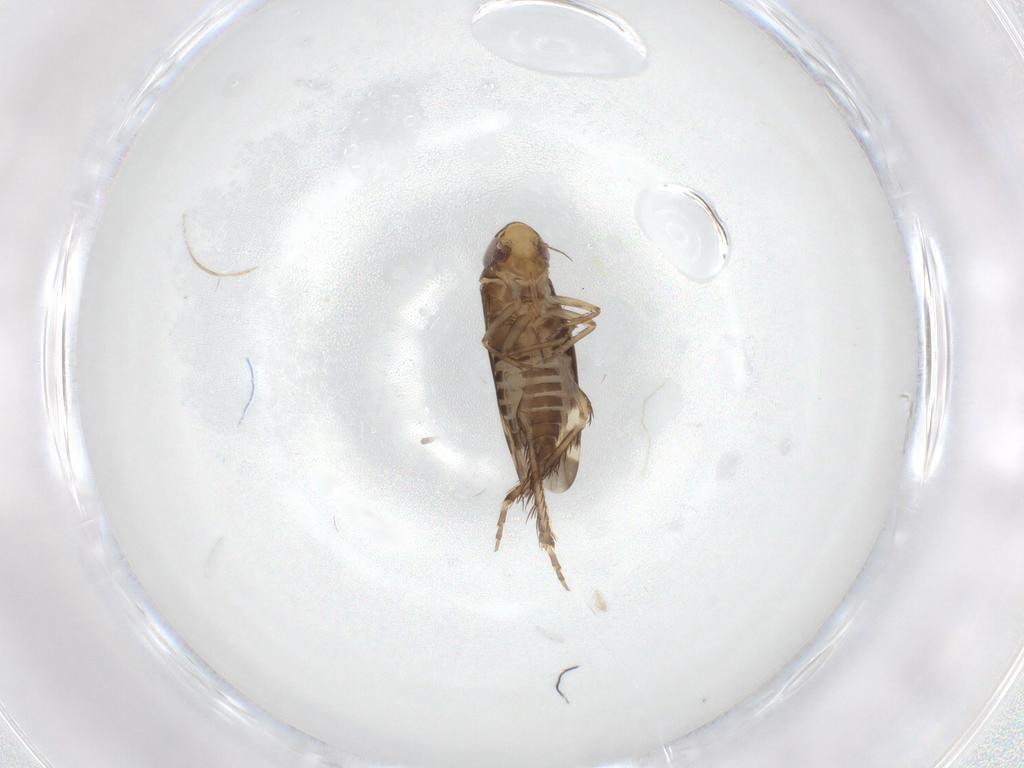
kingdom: Animalia
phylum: Arthropoda
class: Insecta
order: Hemiptera
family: Cicadellidae
